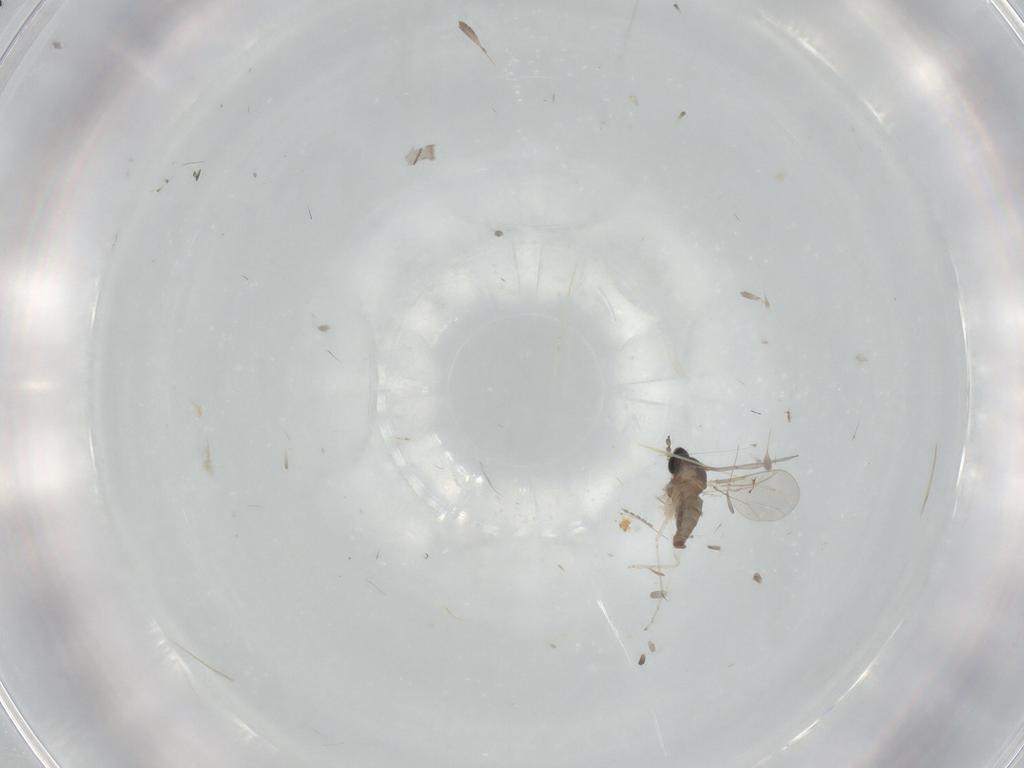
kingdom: Animalia
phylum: Arthropoda
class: Insecta
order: Diptera
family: Cecidomyiidae
